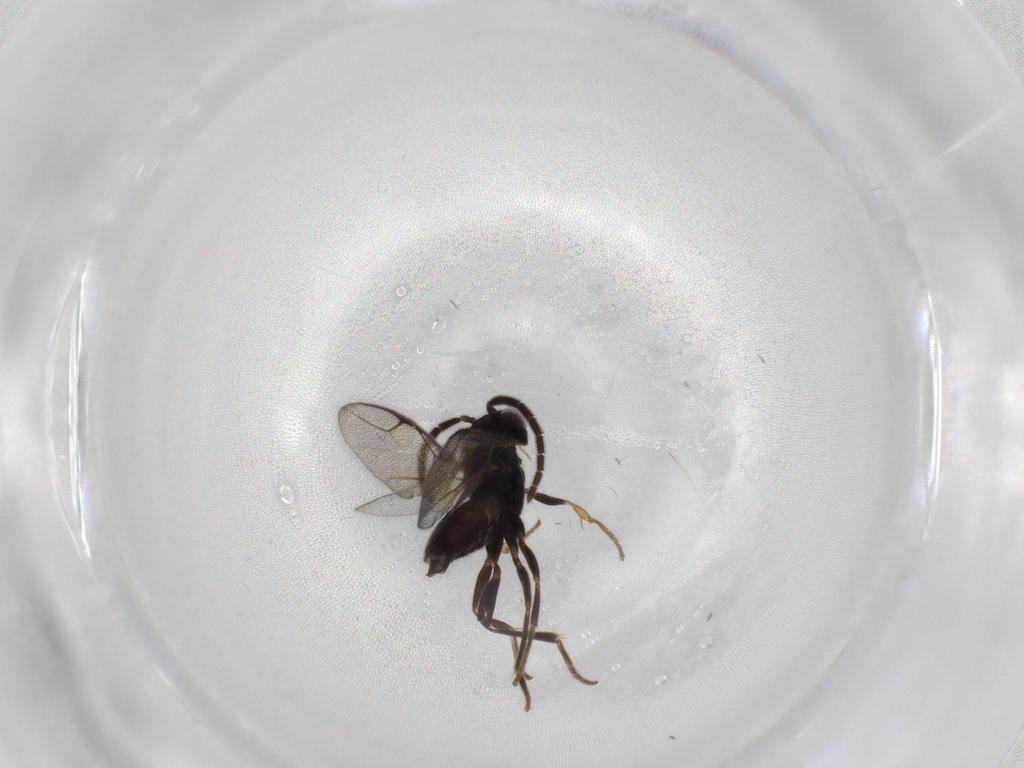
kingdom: Animalia
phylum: Arthropoda
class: Insecta
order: Hymenoptera
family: Dryinidae
